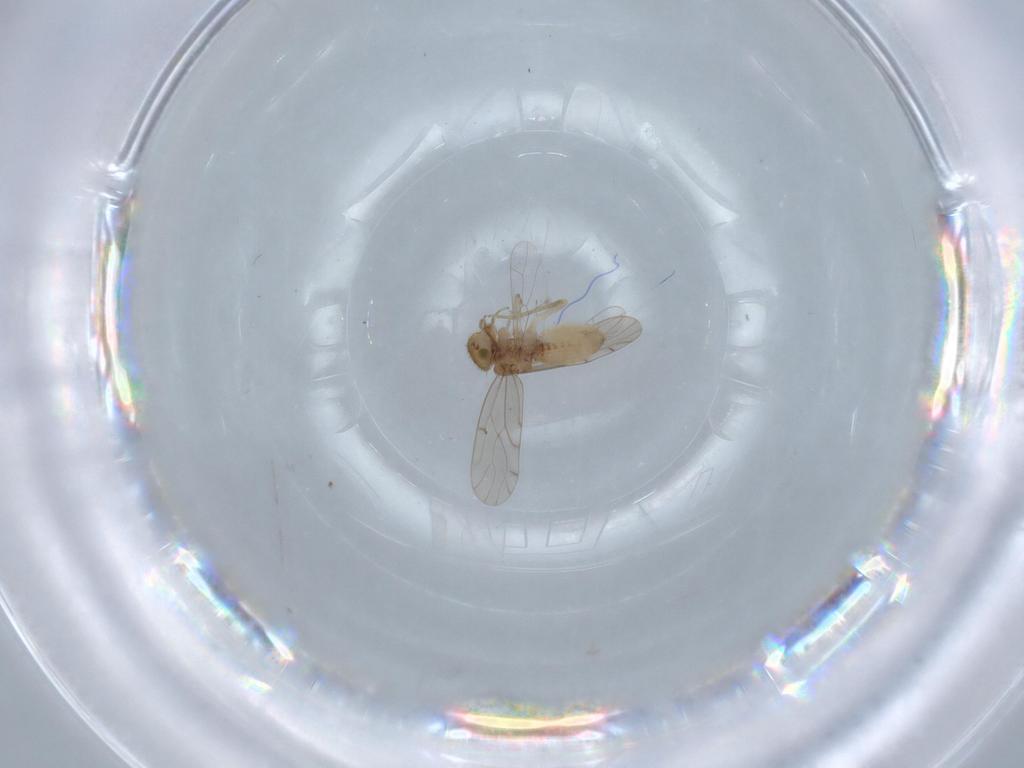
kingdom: Animalia
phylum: Arthropoda
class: Insecta
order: Psocodea
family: Ectopsocidae
